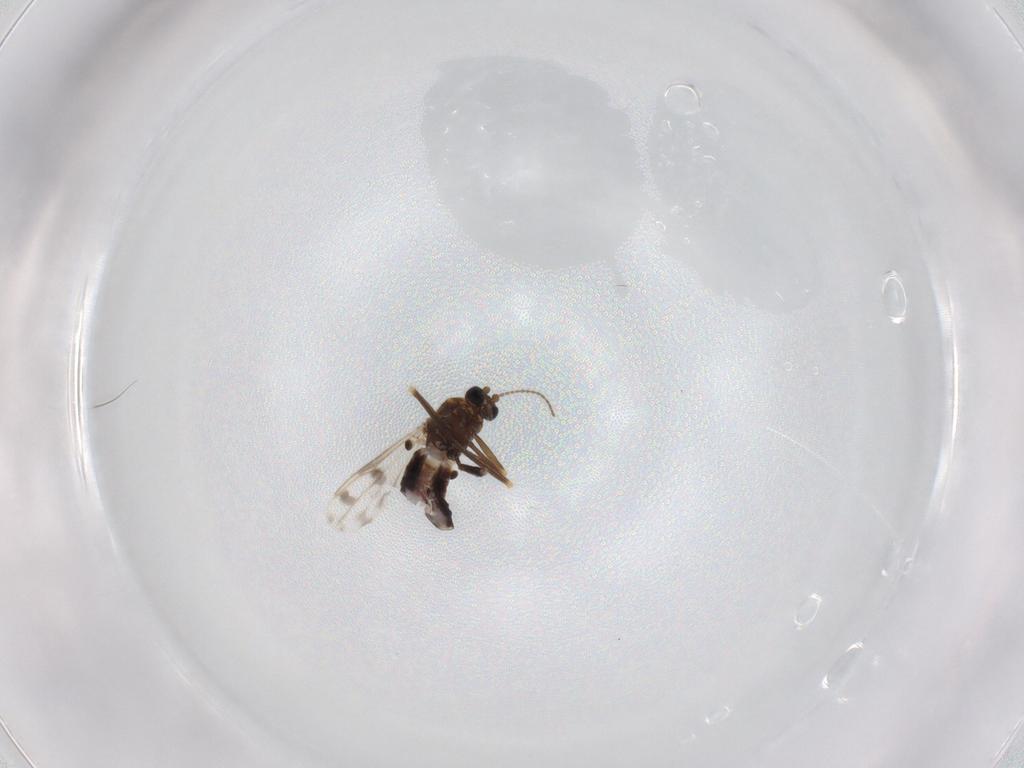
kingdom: Animalia
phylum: Arthropoda
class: Insecta
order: Diptera
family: Ceratopogonidae
